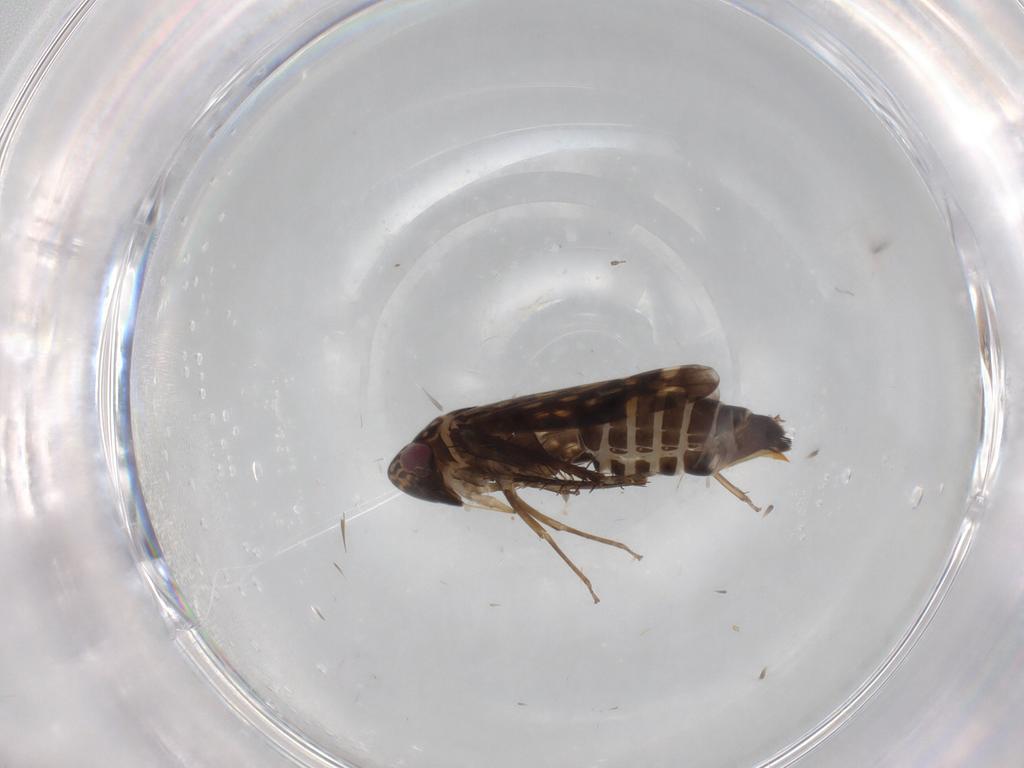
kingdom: Animalia
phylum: Arthropoda
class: Insecta
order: Hemiptera
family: Cicadellidae
